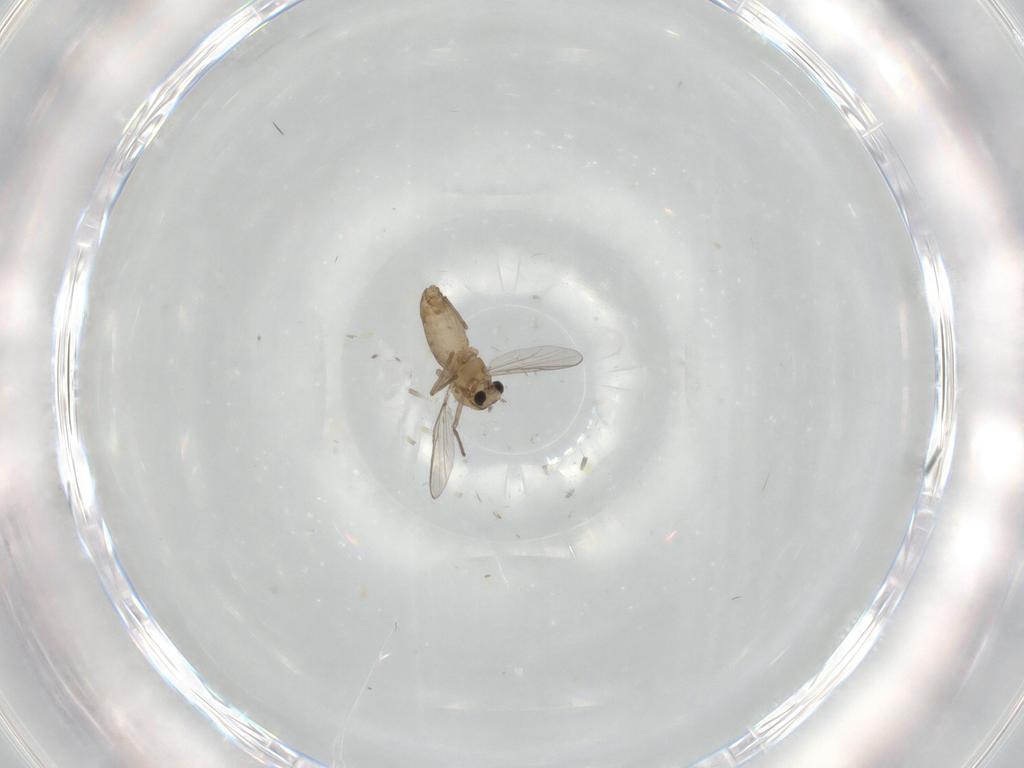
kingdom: Animalia
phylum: Arthropoda
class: Insecta
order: Diptera
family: Chironomidae
